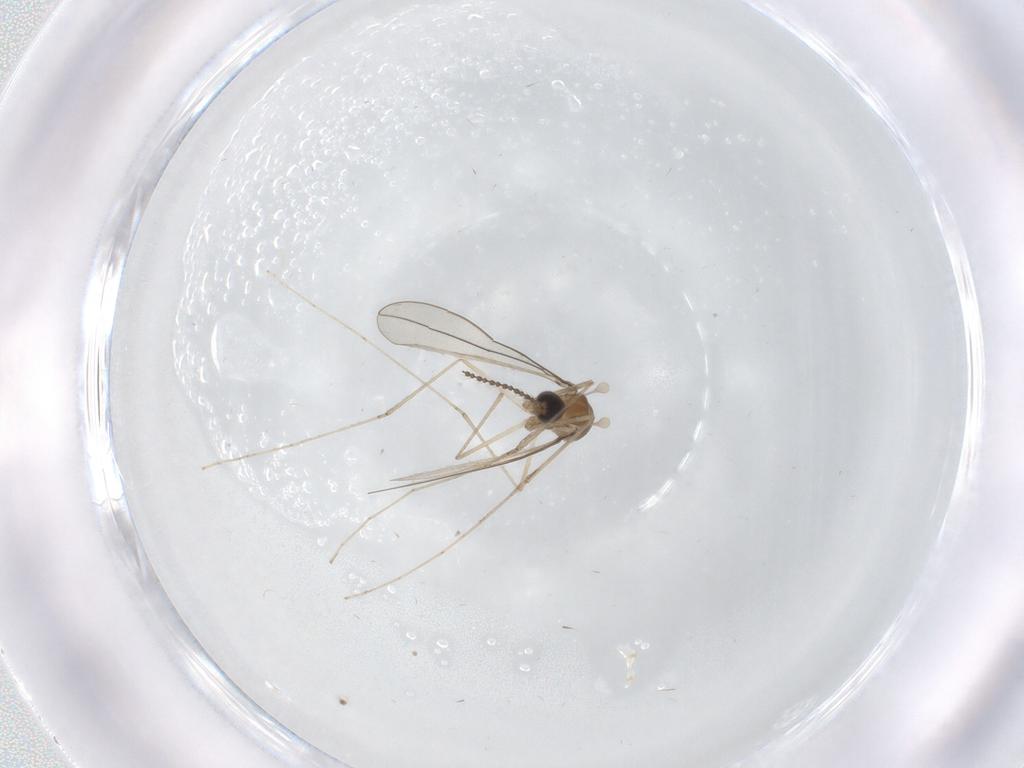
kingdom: Animalia
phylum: Arthropoda
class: Insecta
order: Diptera
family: Cecidomyiidae
